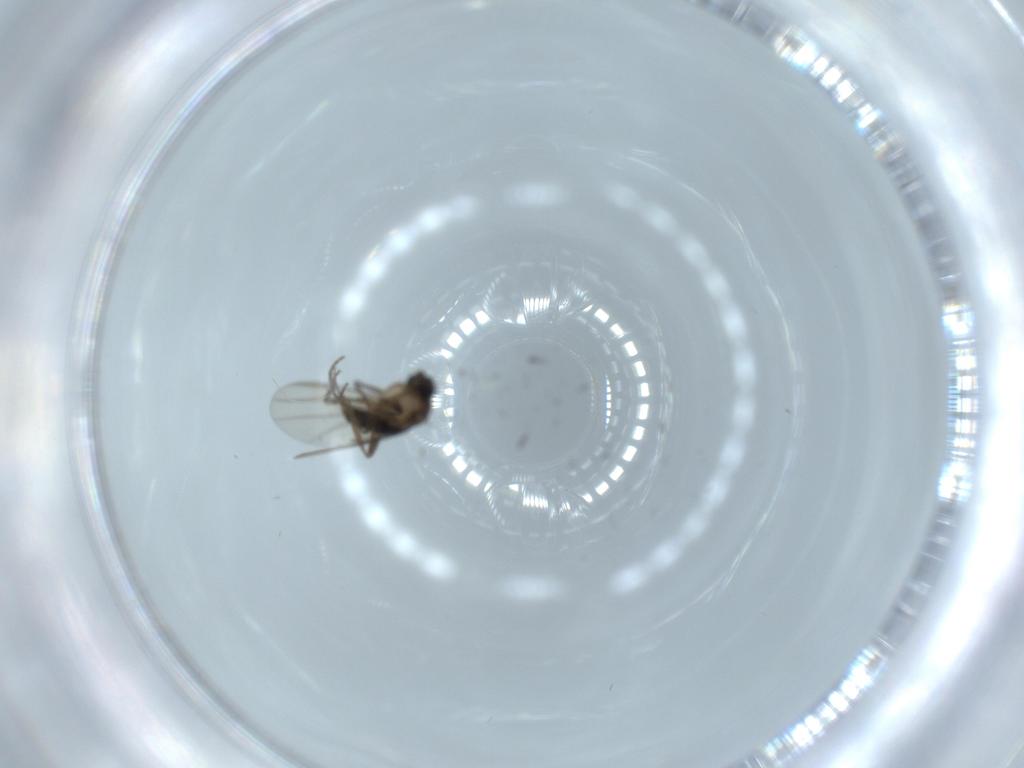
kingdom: Animalia
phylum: Arthropoda
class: Insecta
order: Diptera
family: Phoridae
